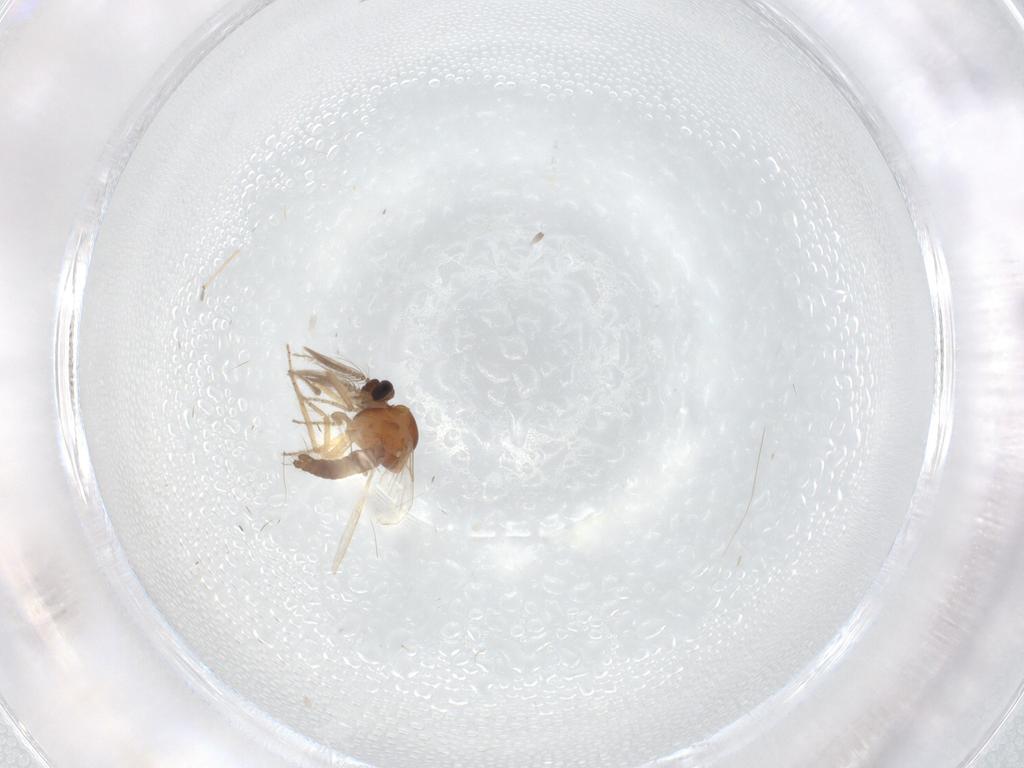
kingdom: Animalia
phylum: Arthropoda
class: Insecta
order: Diptera
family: Ceratopogonidae
